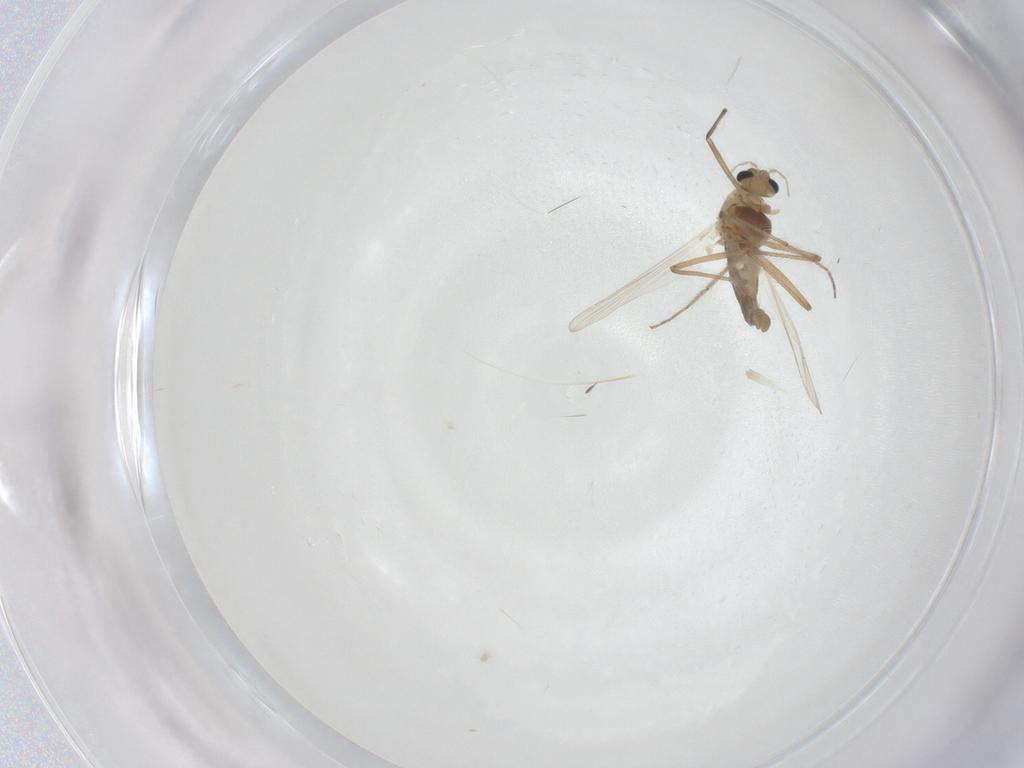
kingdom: Animalia
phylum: Arthropoda
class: Insecta
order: Diptera
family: Chironomidae
